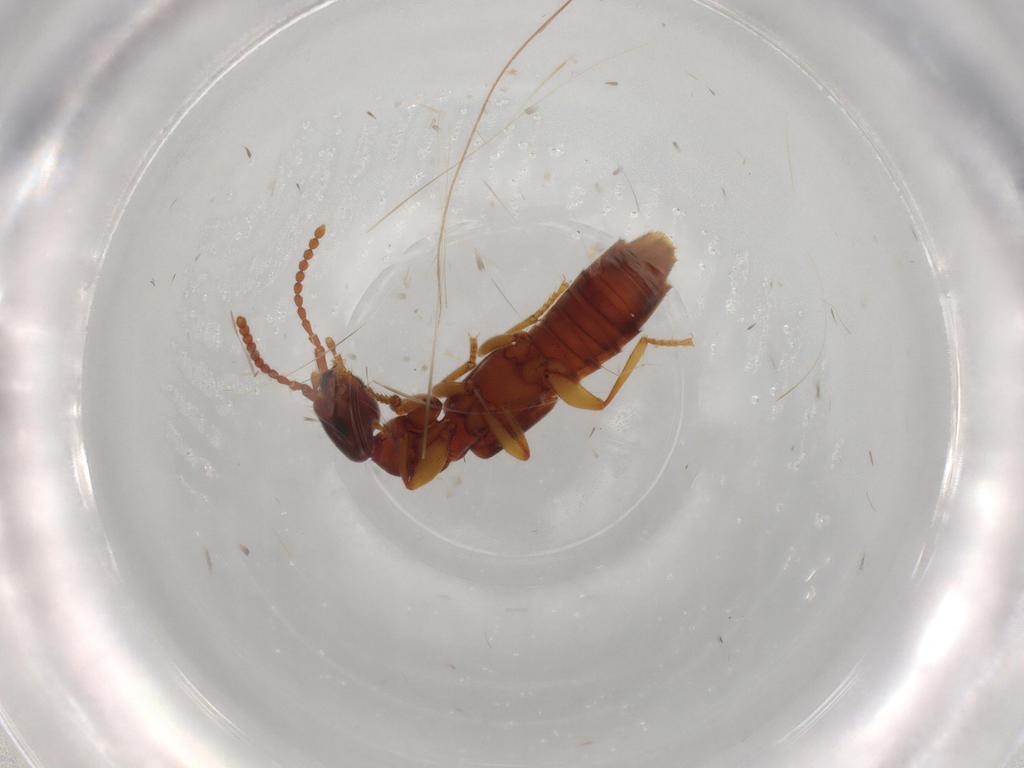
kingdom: Animalia
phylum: Arthropoda
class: Insecta
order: Coleoptera
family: Staphylinidae
